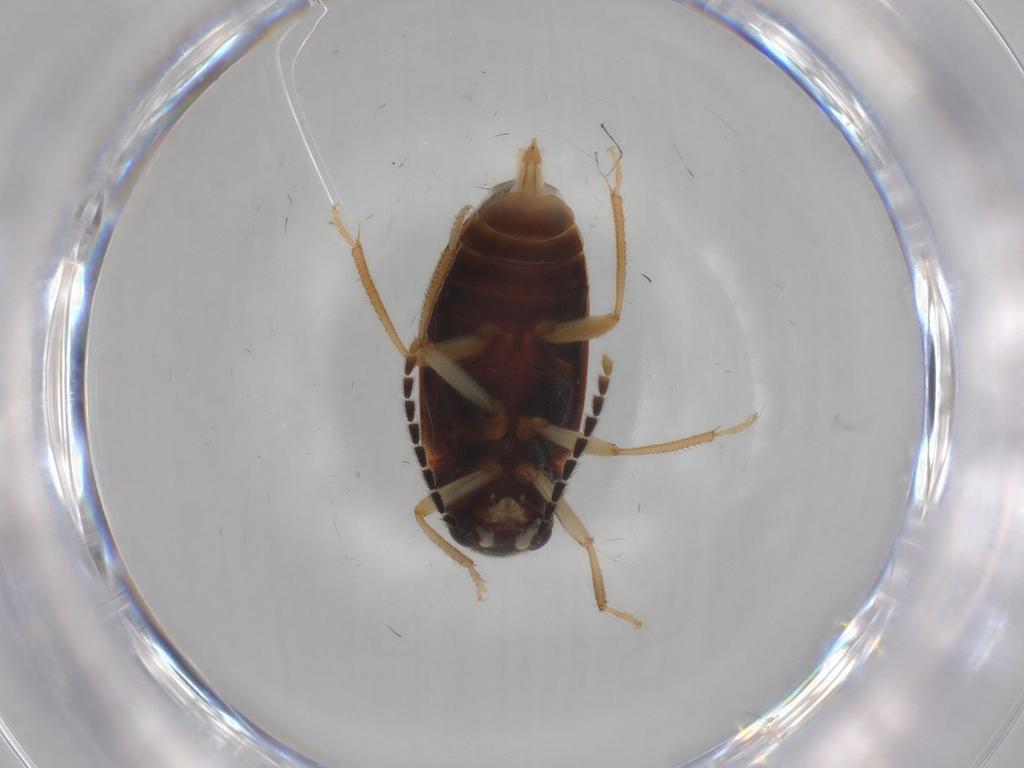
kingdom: Animalia
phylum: Arthropoda
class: Insecta
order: Coleoptera
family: Ptilodactylidae
